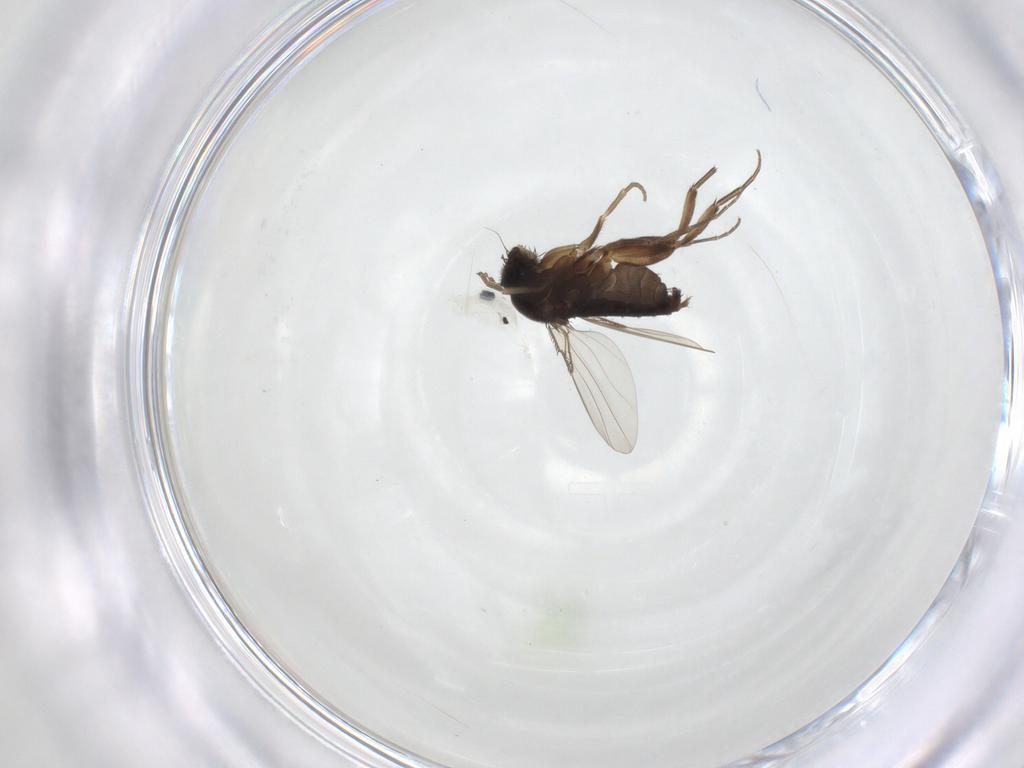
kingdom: Animalia
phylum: Arthropoda
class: Insecta
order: Diptera
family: Phoridae
